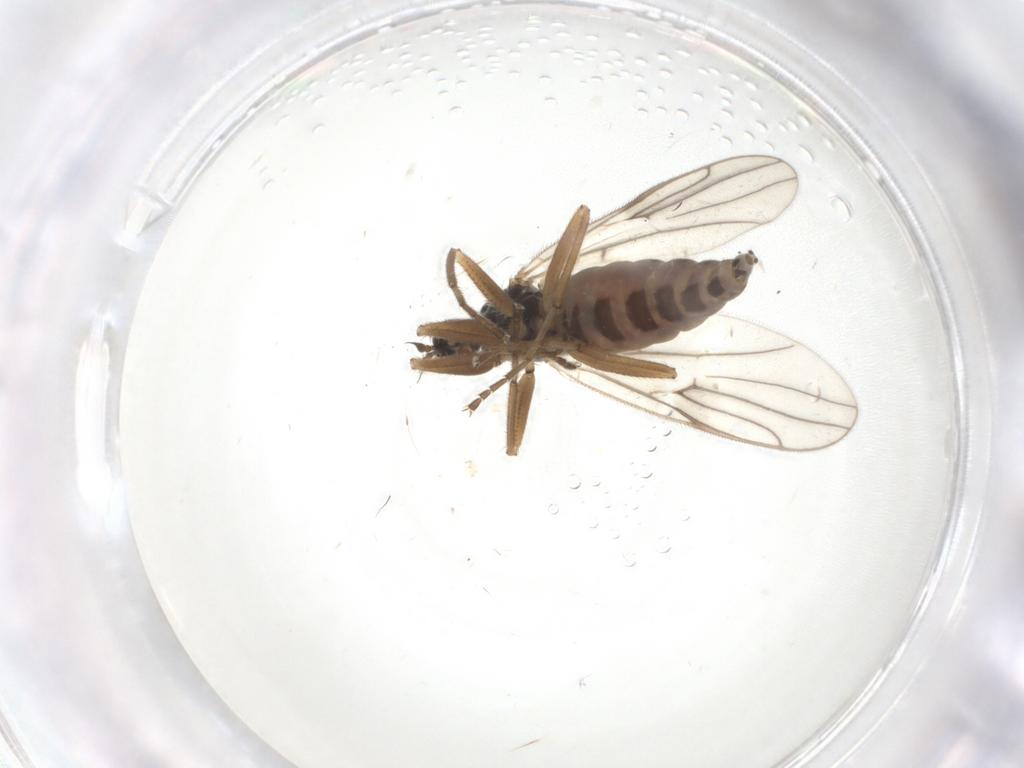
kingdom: Animalia
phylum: Arthropoda
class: Insecta
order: Diptera
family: Hybotidae
